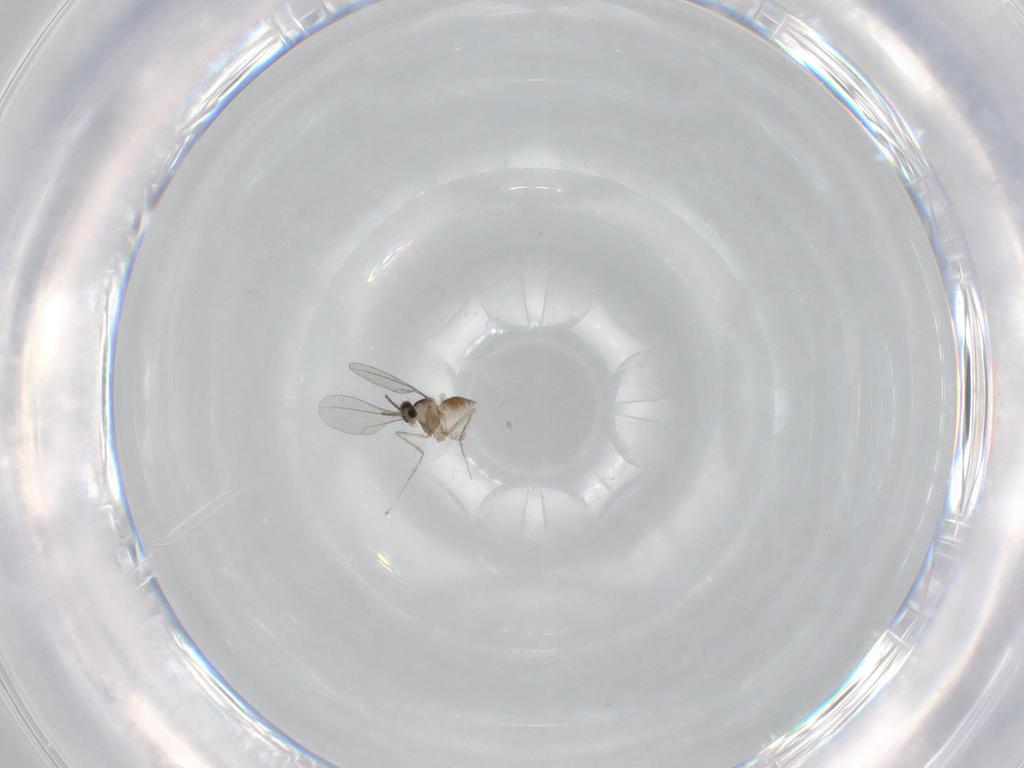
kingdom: Animalia
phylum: Arthropoda
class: Insecta
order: Diptera
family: Cecidomyiidae
